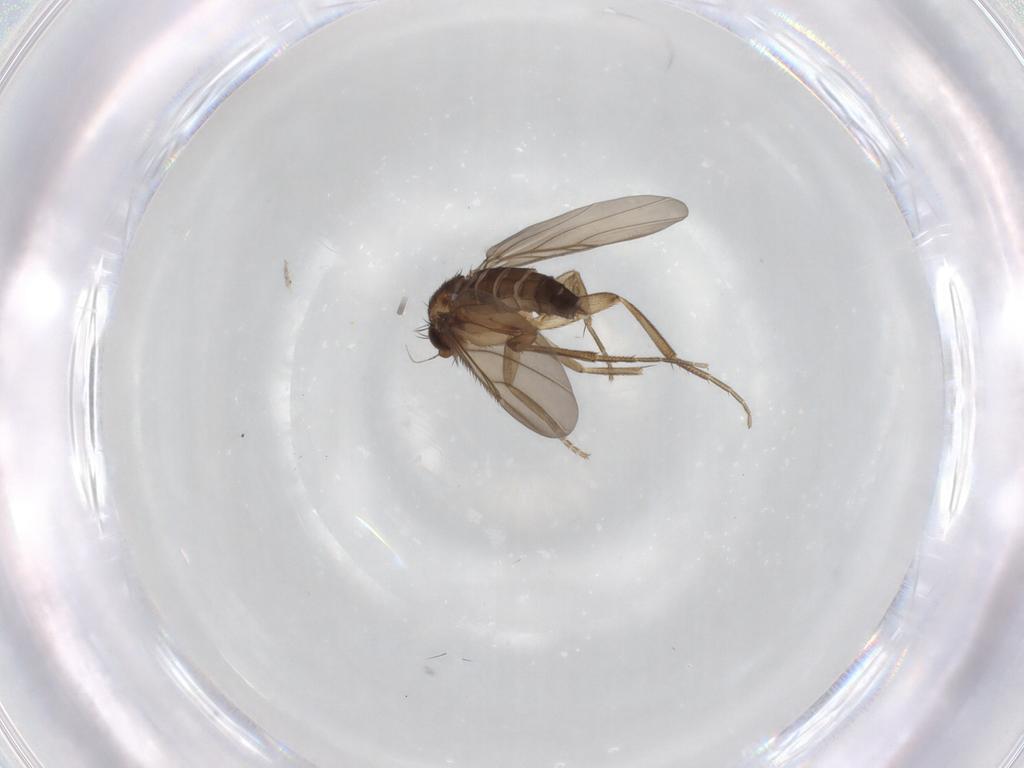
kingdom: Animalia
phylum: Arthropoda
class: Insecta
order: Diptera
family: Phoridae
